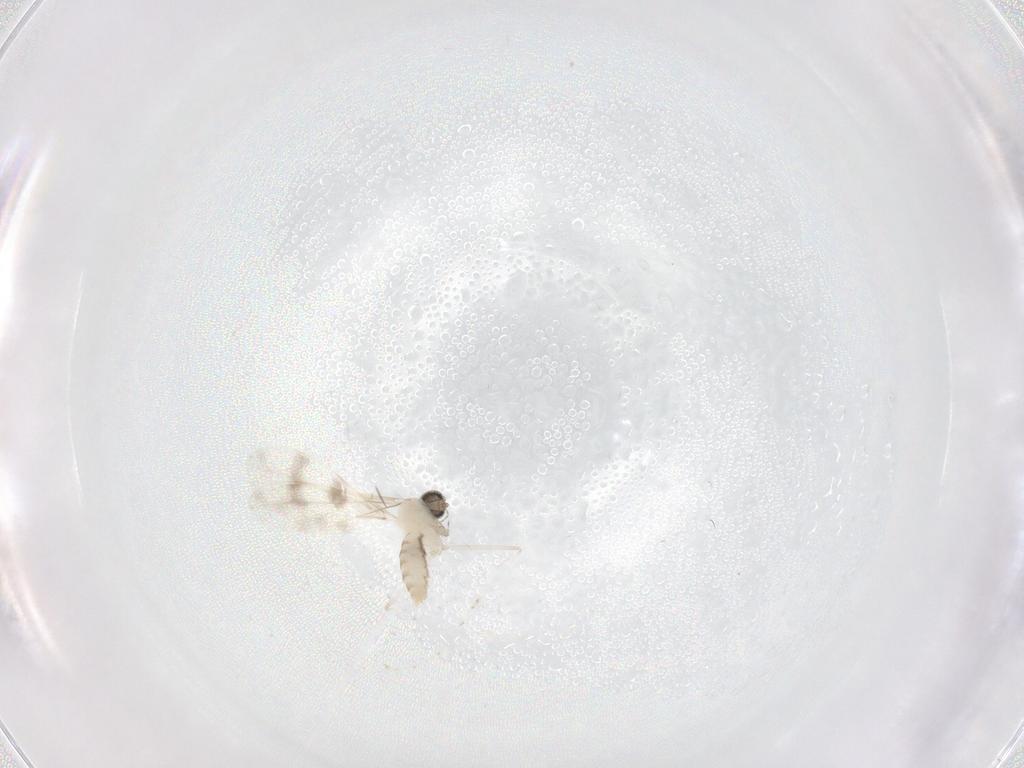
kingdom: Animalia
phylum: Arthropoda
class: Insecta
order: Diptera
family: Cecidomyiidae
